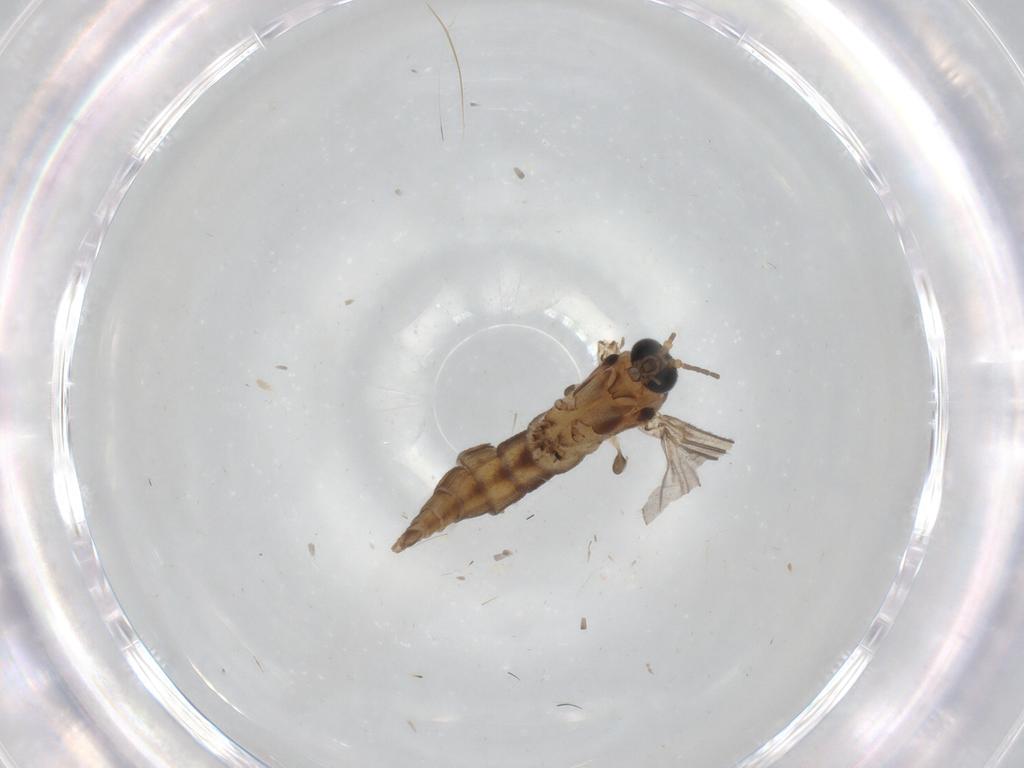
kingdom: Animalia
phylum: Arthropoda
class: Insecta
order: Diptera
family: Sciaridae
